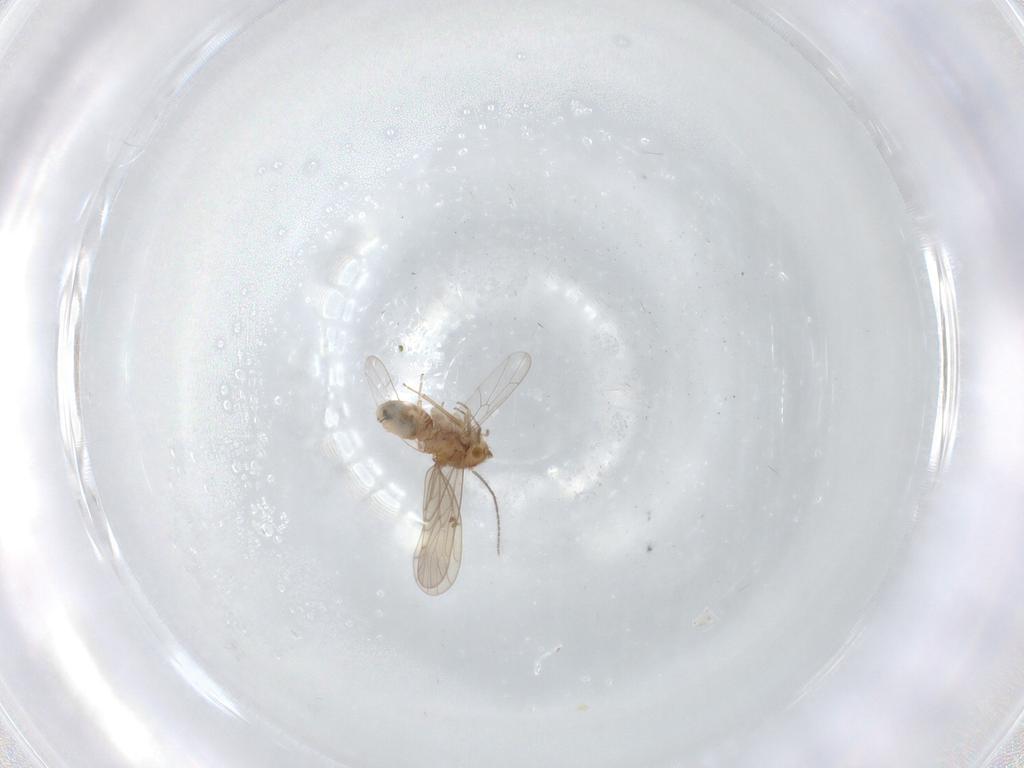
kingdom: Animalia
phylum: Arthropoda
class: Insecta
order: Psocodea
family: Ectopsocidae
